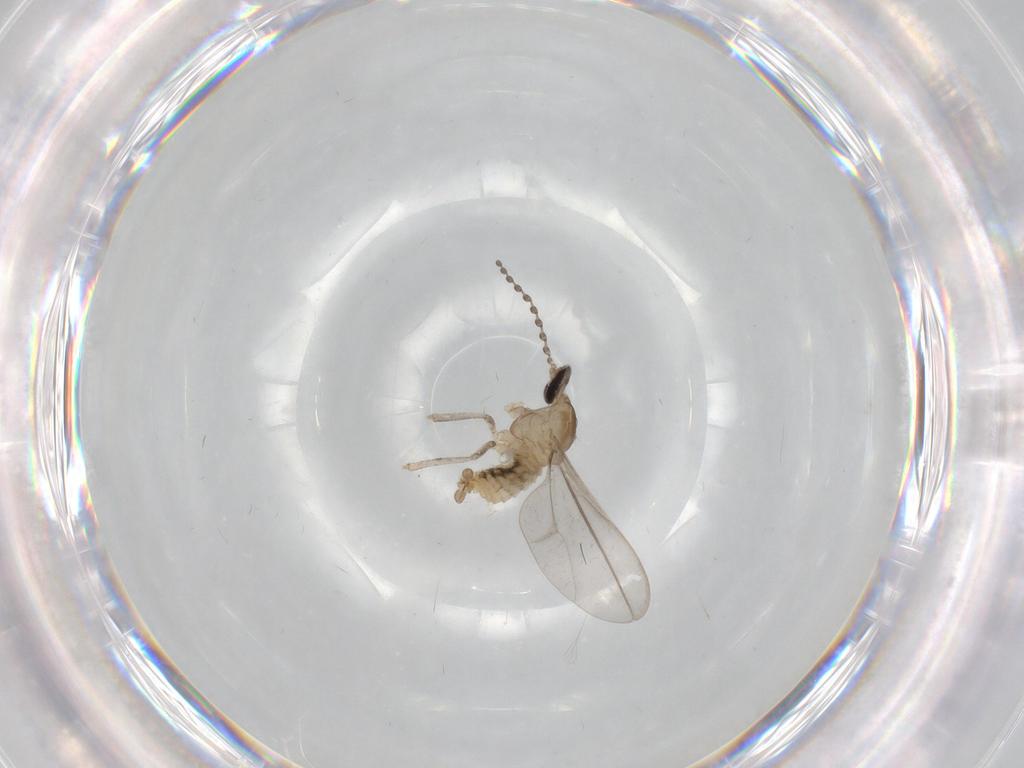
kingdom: Animalia
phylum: Arthropoda
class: Insecta
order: Diptera
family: Cecidomyiidae
